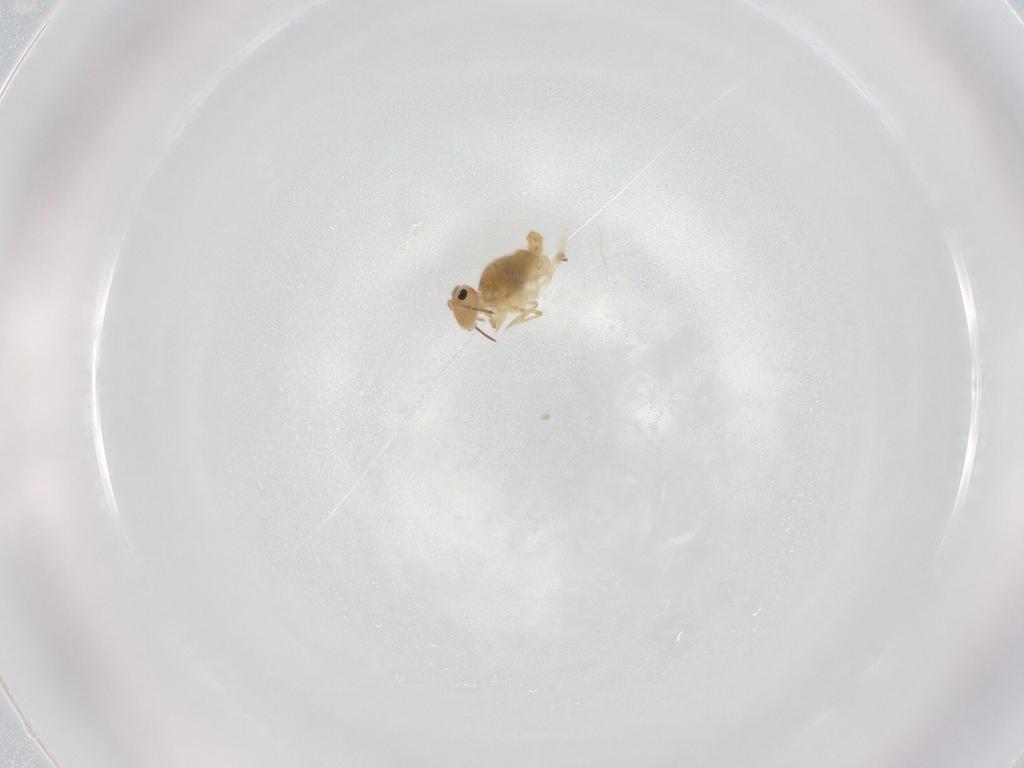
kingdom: Animalia
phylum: Arthropoda
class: Collembola
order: Symphypleona
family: Bourletiellidae
